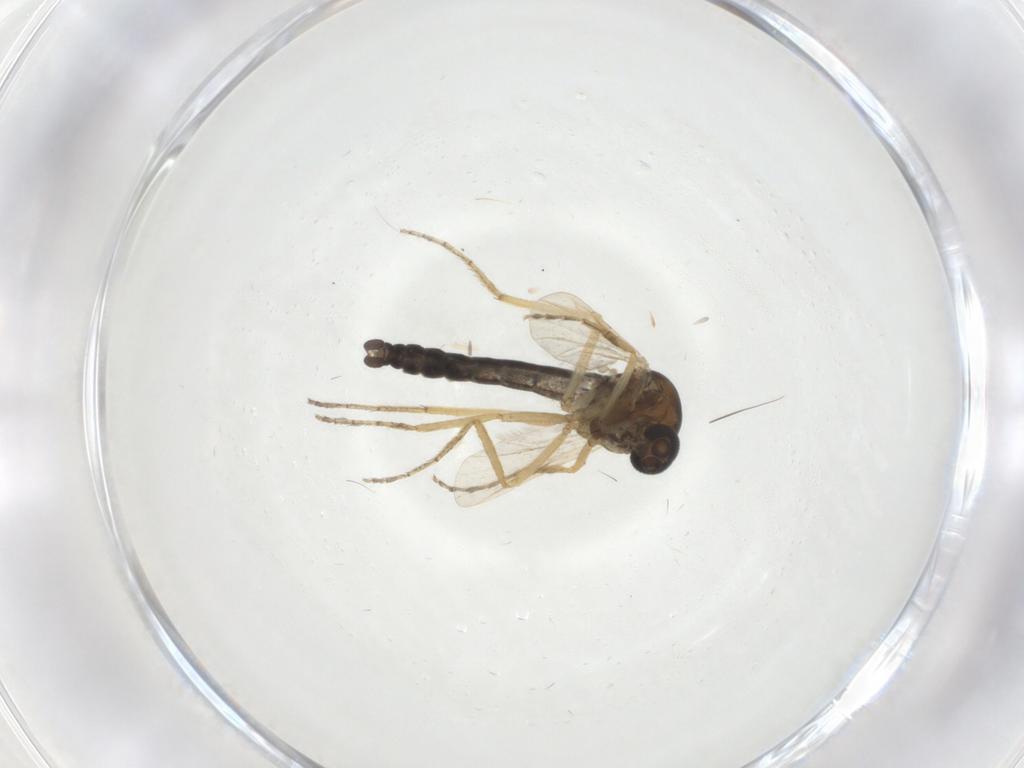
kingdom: Animalia
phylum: Arthropoda
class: Insecta
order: Diptera
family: Ceratopogonidae
